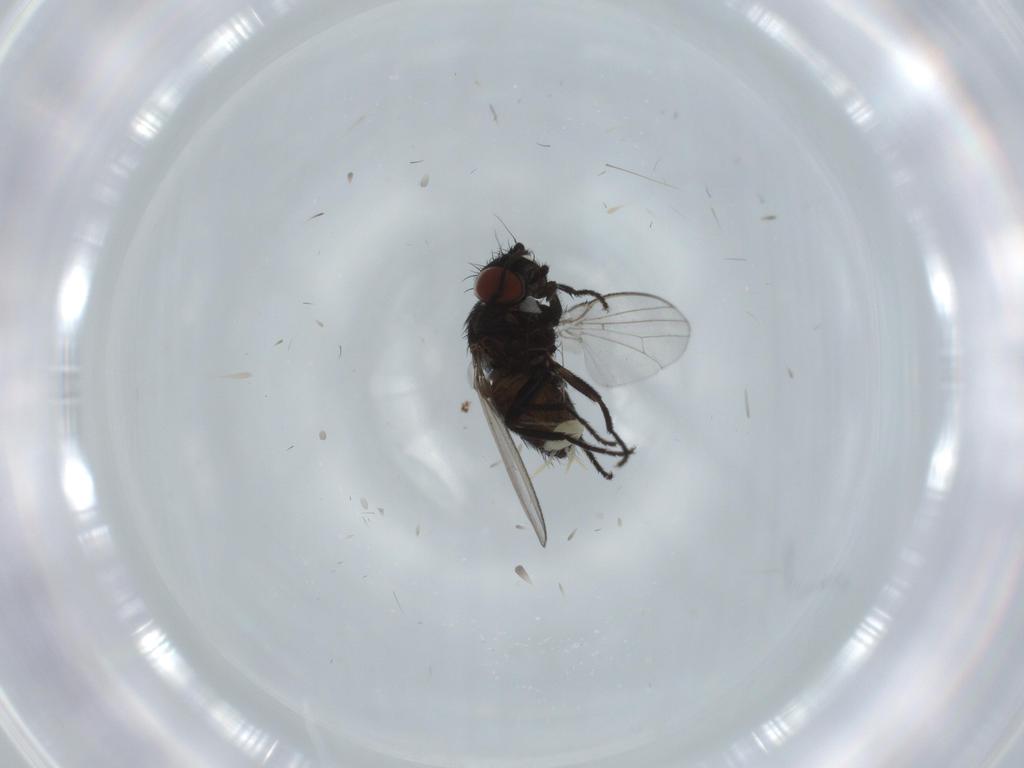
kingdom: Animalia
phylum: Arthropoda
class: Insecta
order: Diptera
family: Milichiidae
